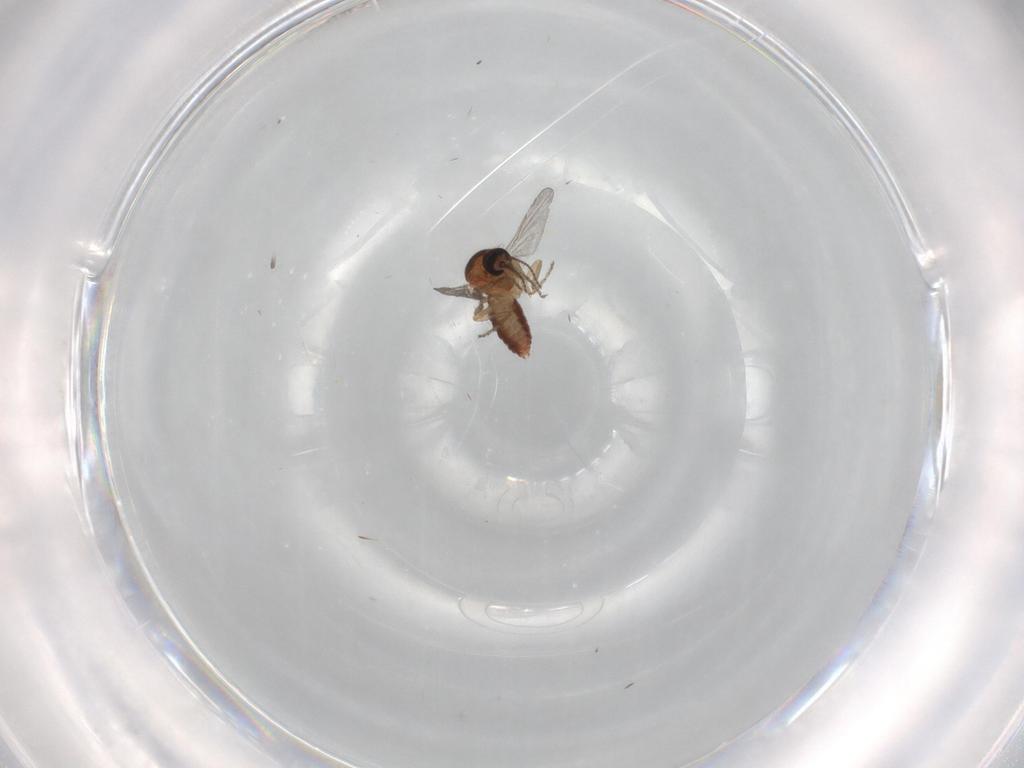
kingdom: Animalia
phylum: Arthropoda
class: Insecta
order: Diptera
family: Ceratopogonidae
